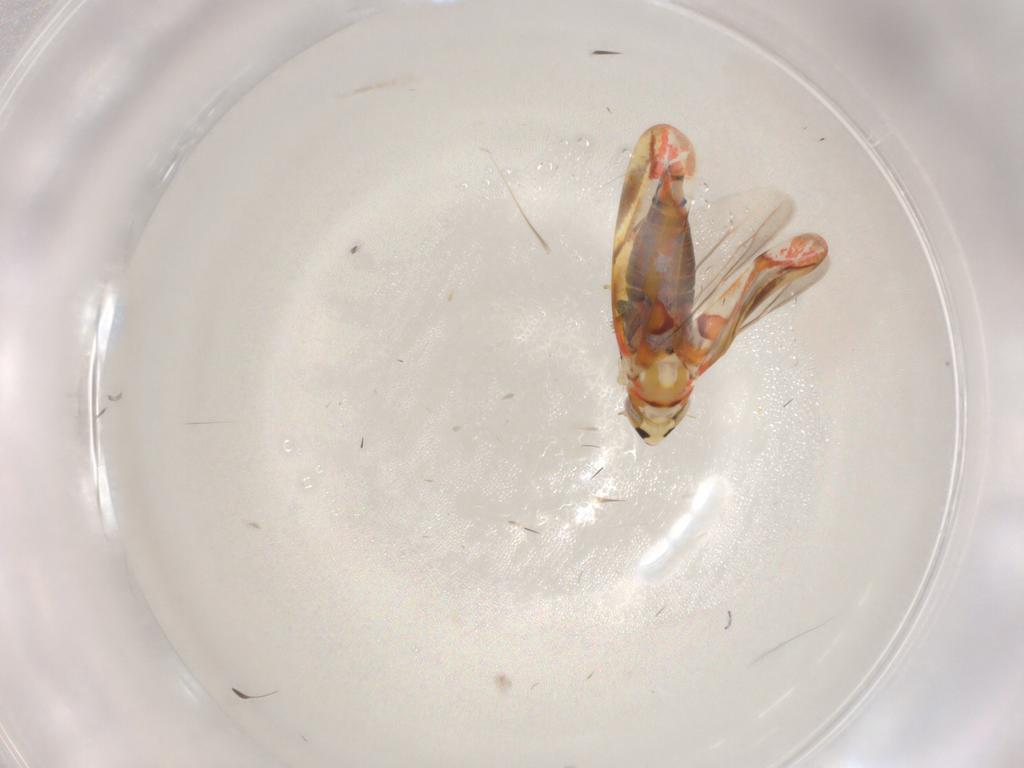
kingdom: Animalia
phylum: Arthropoda
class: Insecta
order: Hemiptera
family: Cicadellidae
